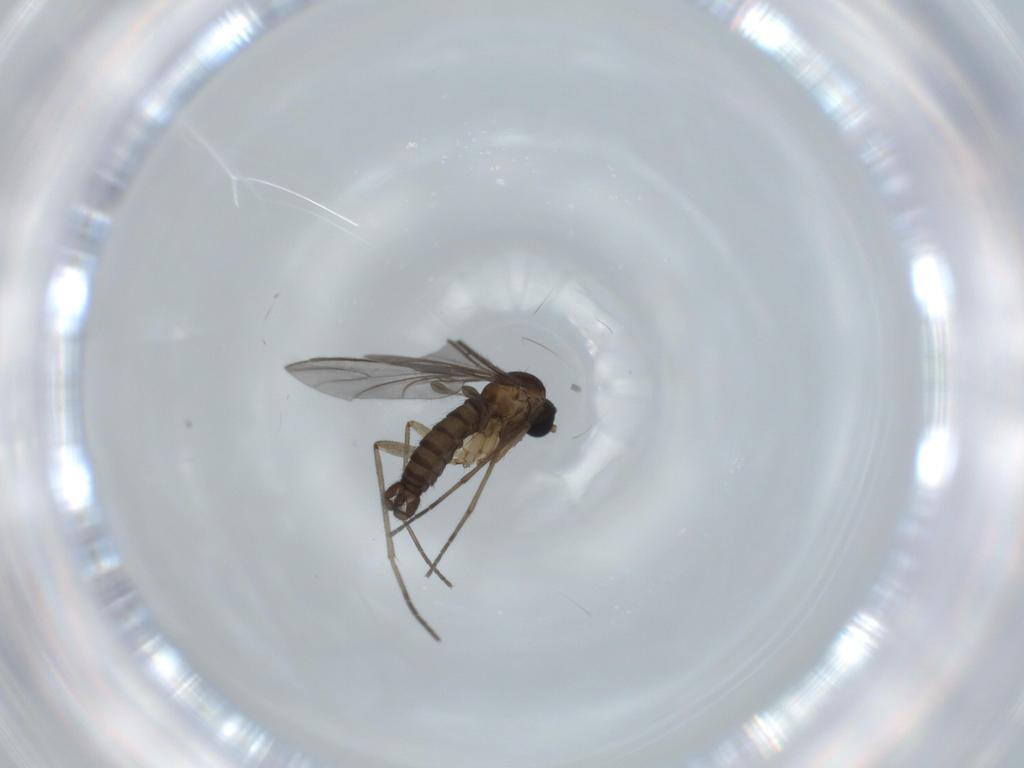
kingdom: Animalia
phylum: Arthropoda
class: Insecta
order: Diptera
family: Sciaridae
